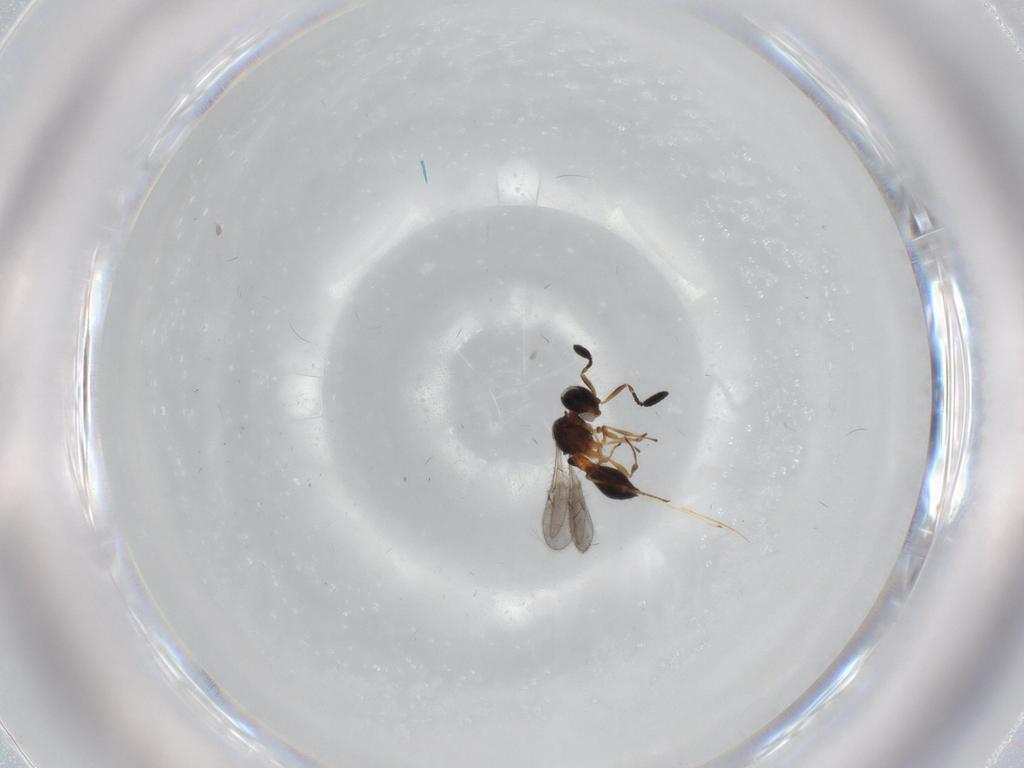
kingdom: Animalia
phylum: Arthropoda
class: Insecta
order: Hymenoptera
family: Scelionidae
